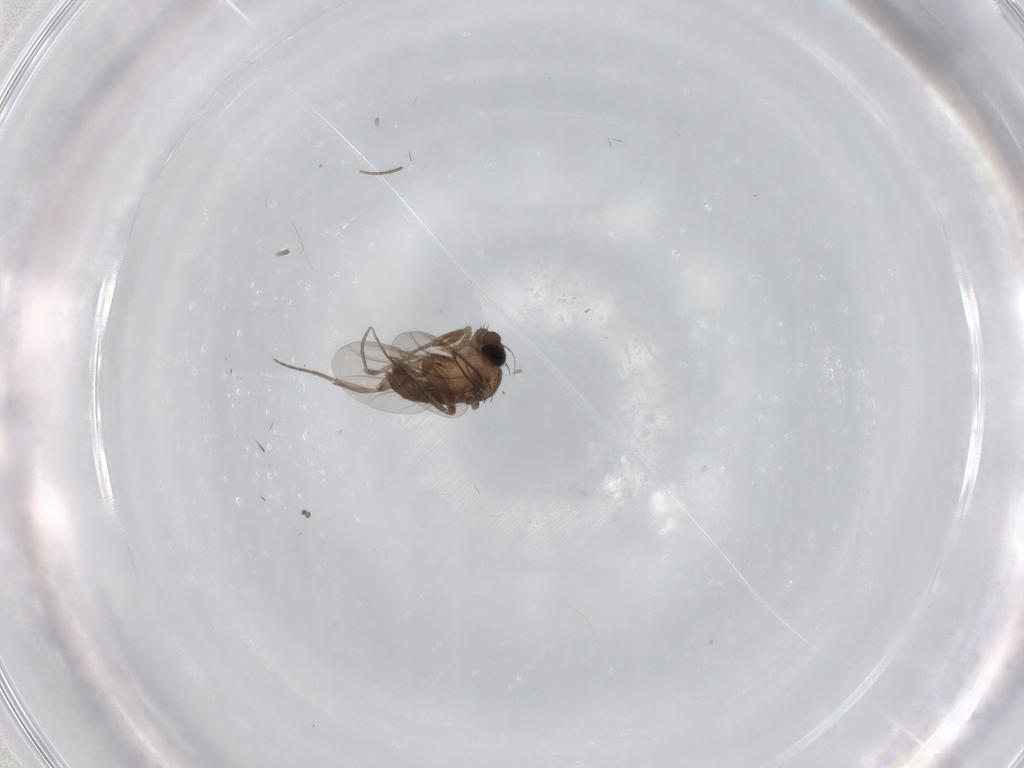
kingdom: Animalia
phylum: Arthropoda
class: Insecta
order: Diptera
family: Phoridae
